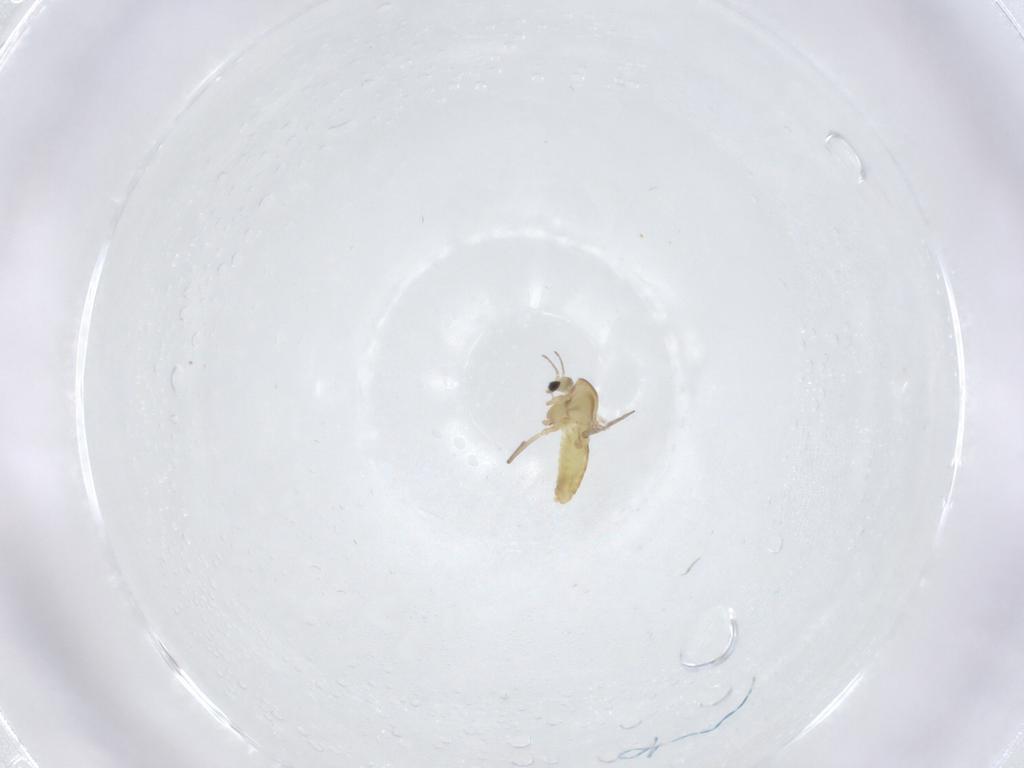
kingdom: Animalia
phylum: Arthropoda
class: Insecta
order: Diptera
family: Chironomidae
